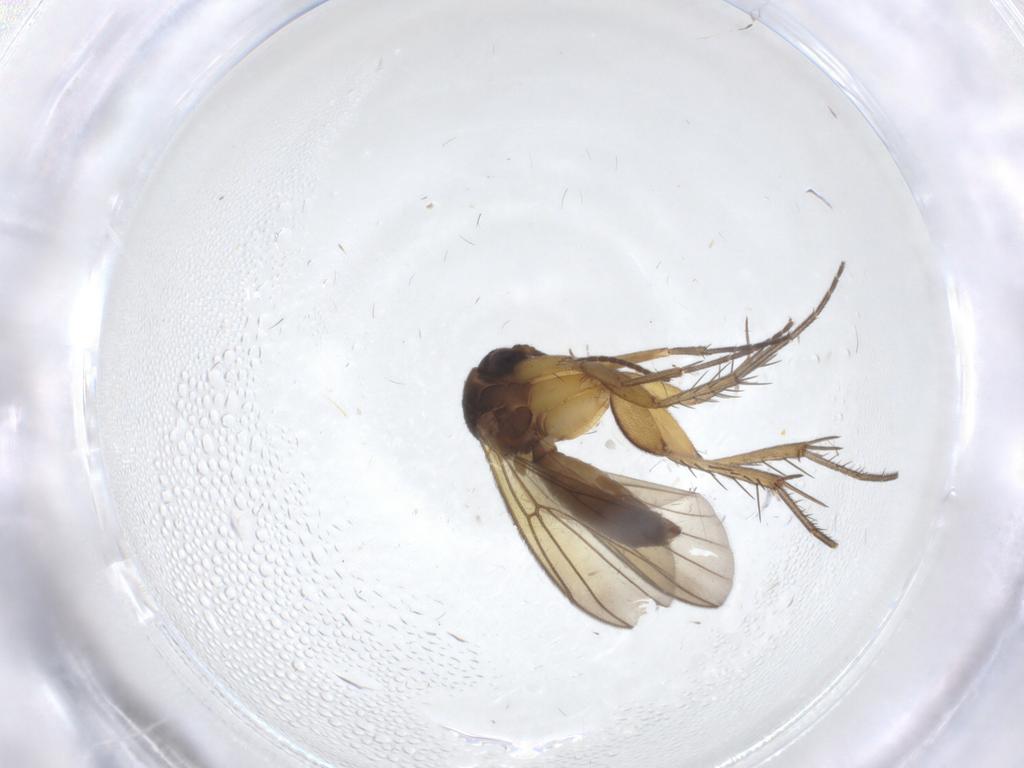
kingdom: Animalia
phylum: Arthropoda
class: Insecta
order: Diptera
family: Mycetophilidae
